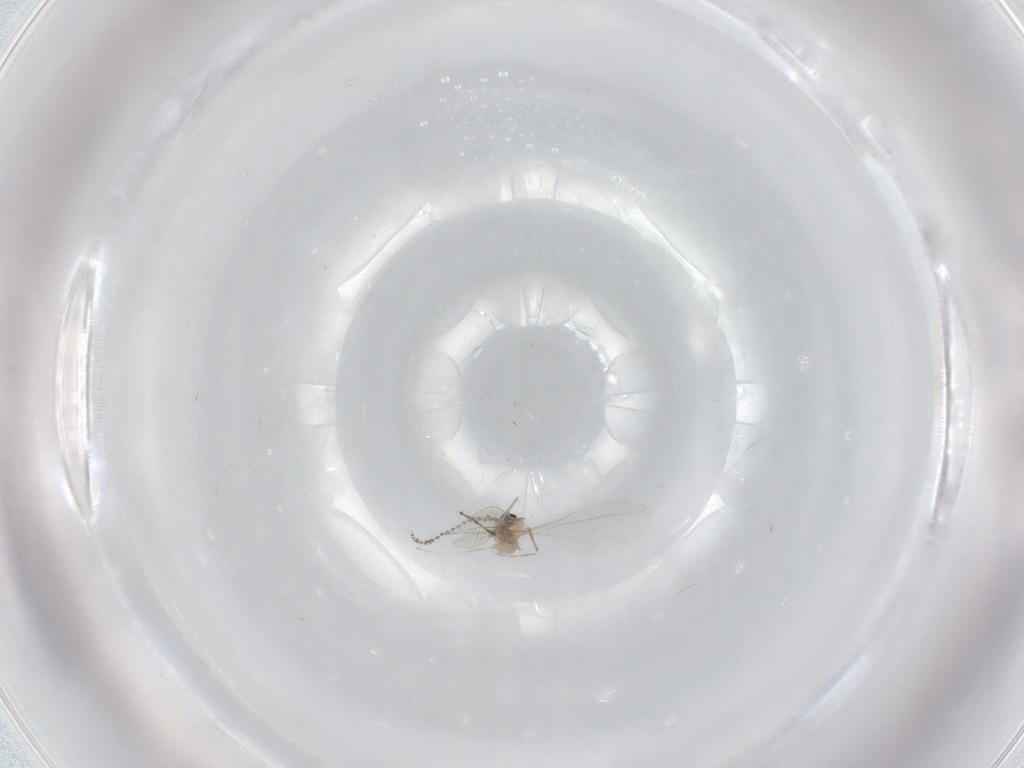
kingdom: Animalia
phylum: Arthropoda
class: Insecta
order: Diptera
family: Cecidomyiidae
